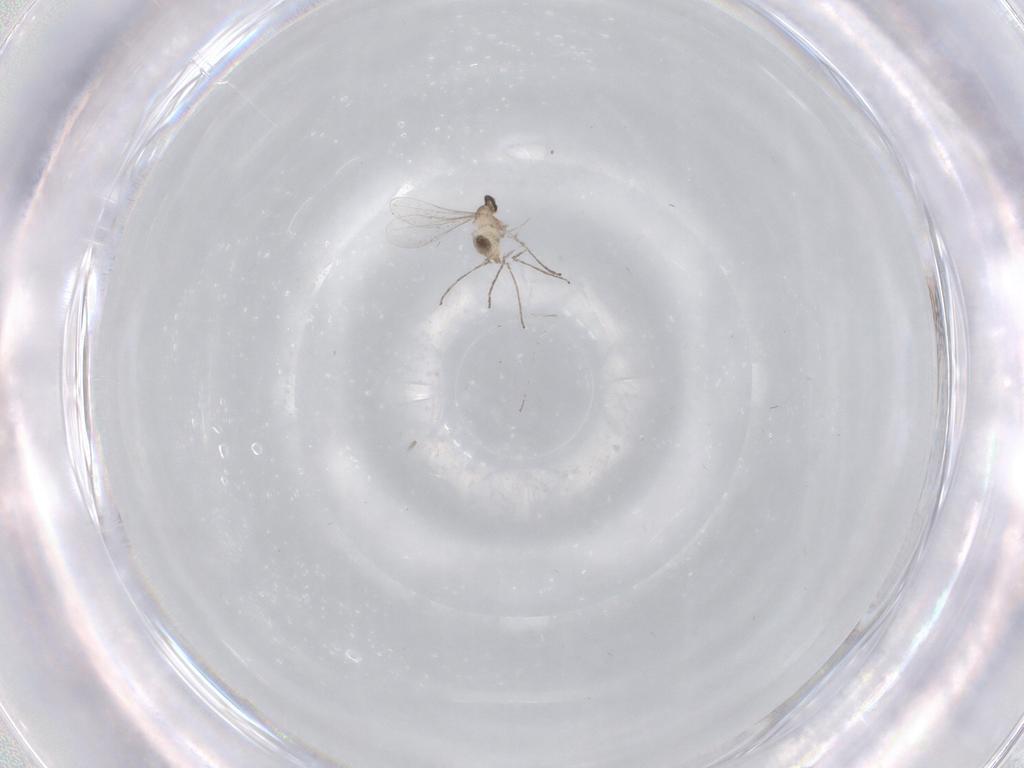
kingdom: Animalia
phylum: Arthropoda
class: Insecta
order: Diptera
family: Cecidomyiidae
